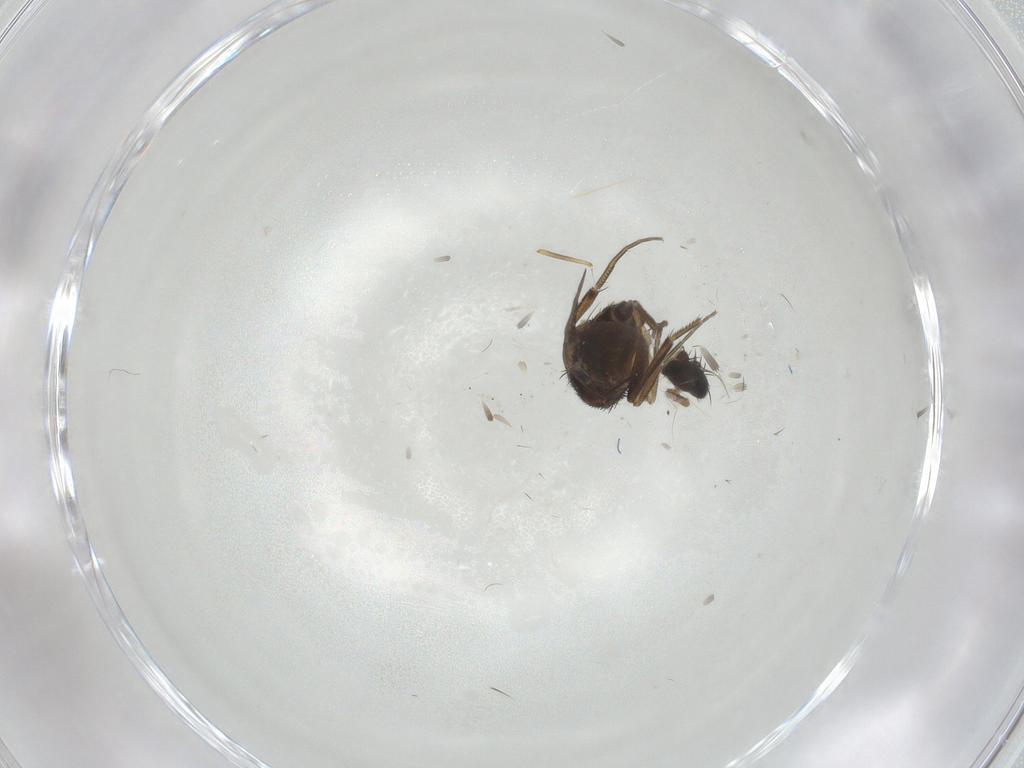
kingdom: Animalia
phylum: Arthropoda
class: Insecta
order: Diptera
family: Phoridae
